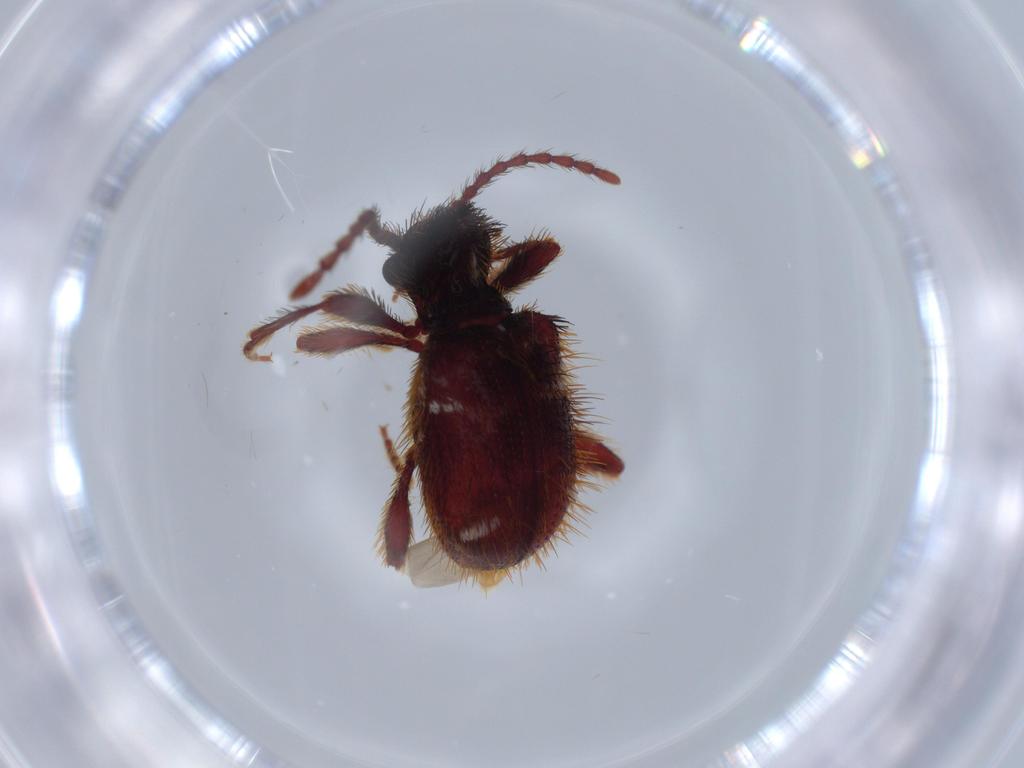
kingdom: Animalia
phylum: Arthropoda
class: Insecta
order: Coleoptera
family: Ptinidae
